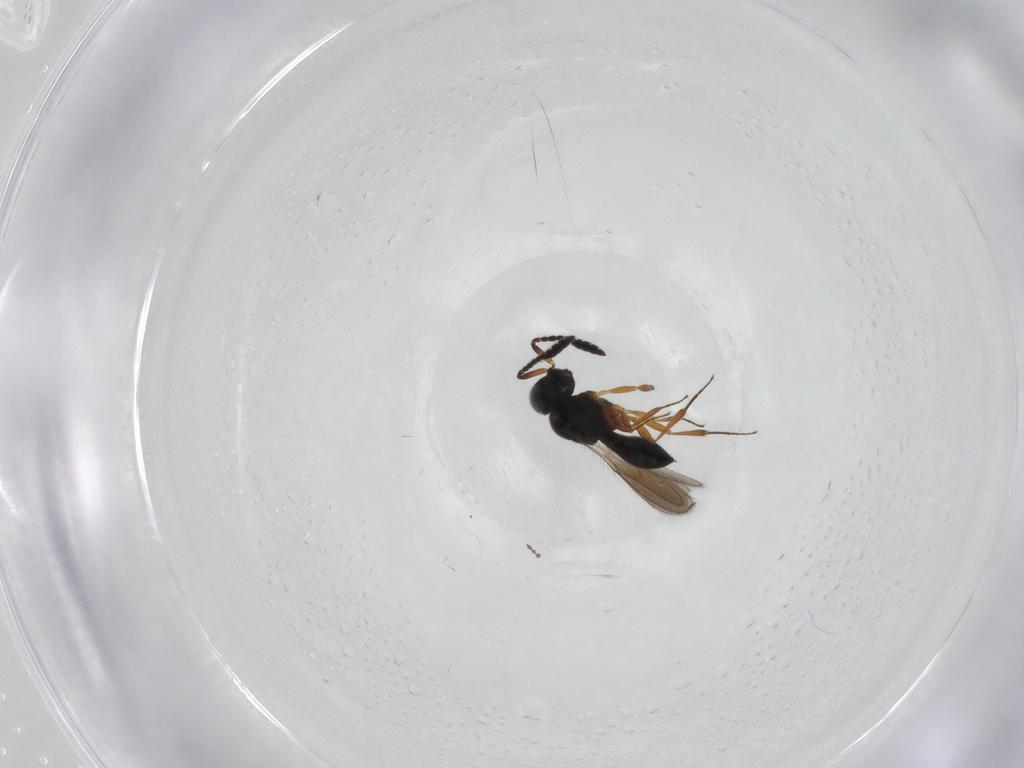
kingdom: Animalia
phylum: Arthropoda
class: Insecta
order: Hymenoptera
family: Scelionidae
